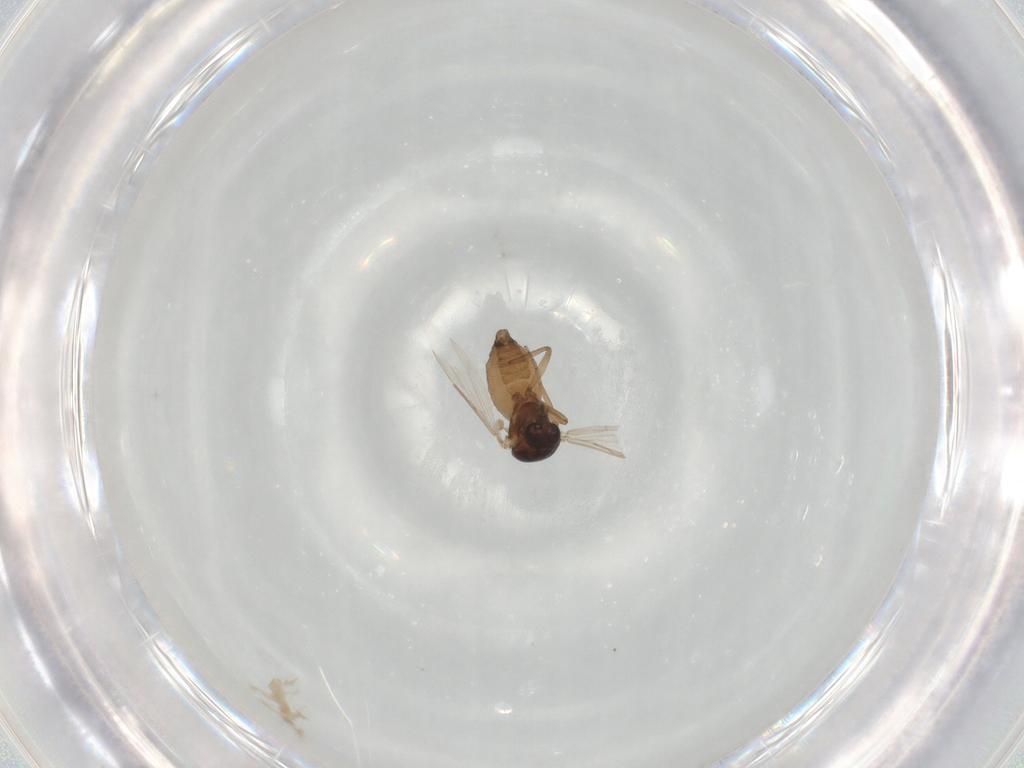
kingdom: Animalia
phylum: Arthropoda
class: Insecta
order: Diptera
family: Ceratopogonidae
